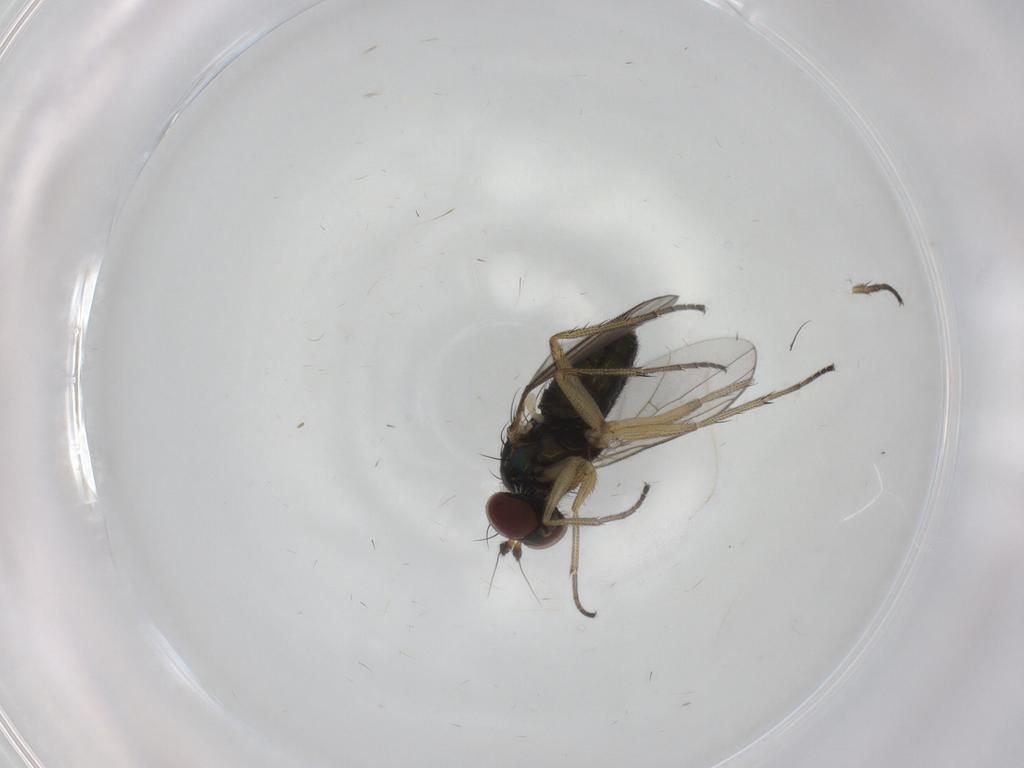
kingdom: Animalia
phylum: Arthropoda
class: Insecta
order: Diptera
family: Dolichopodidae
